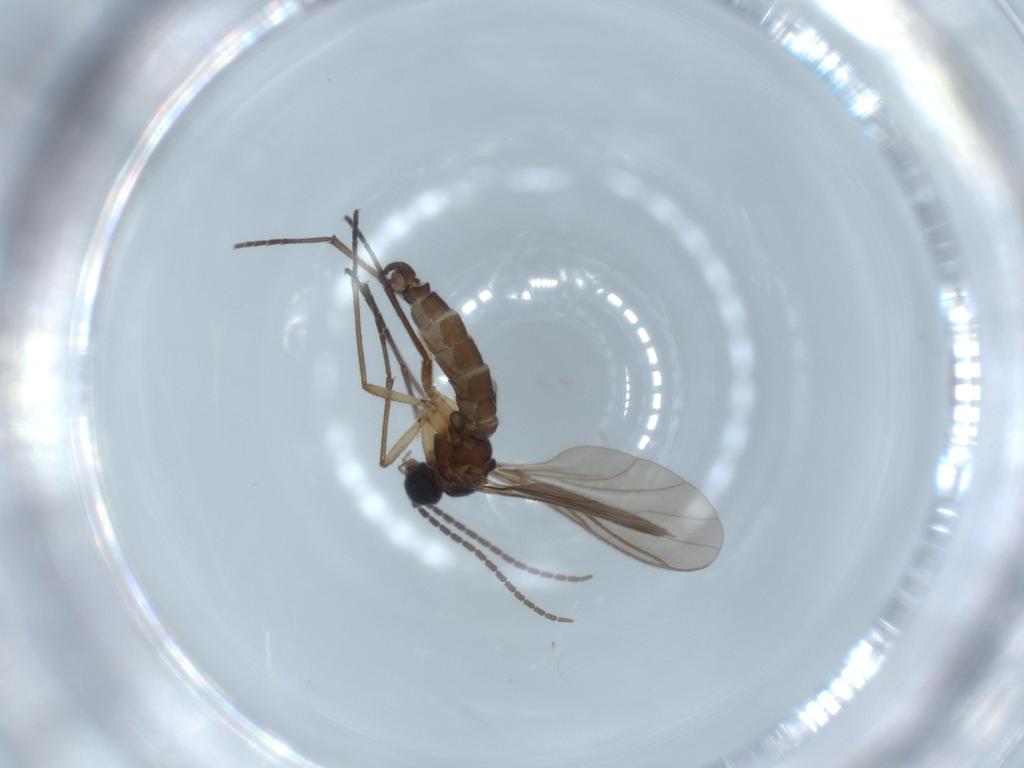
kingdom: Animalia
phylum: Arthropoda
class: Insecta
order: Diptera
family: Sciaridae
